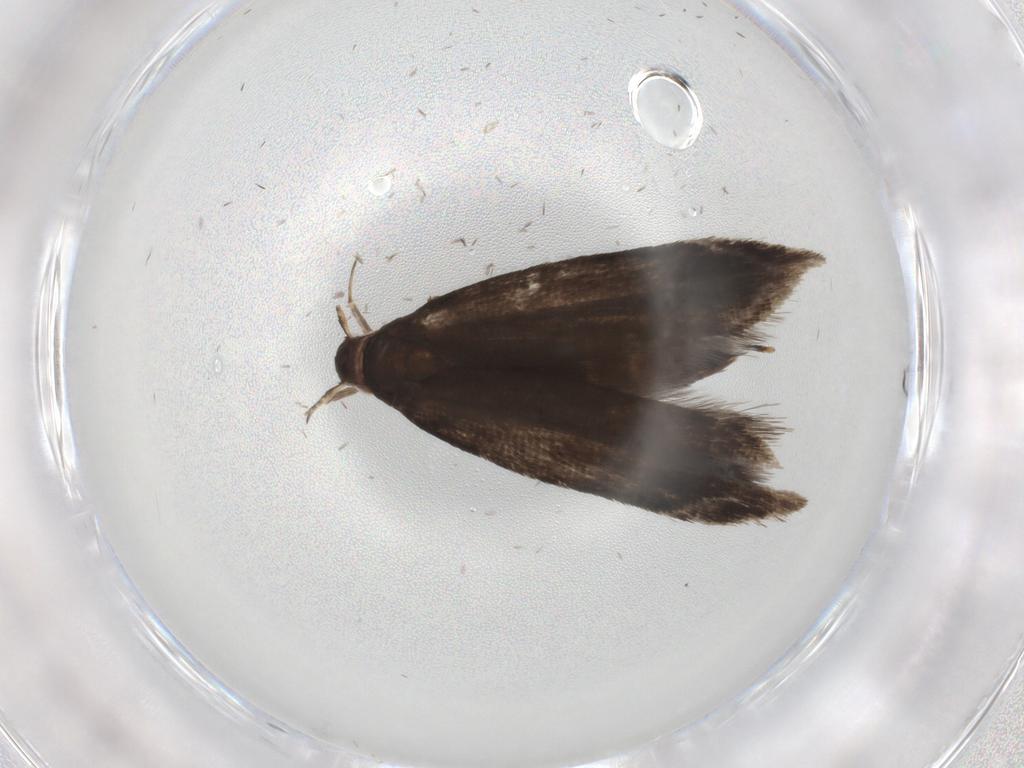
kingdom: Animalia
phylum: Arthropoda
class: Insecta
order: Lepidoptera
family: Gelechiidae
